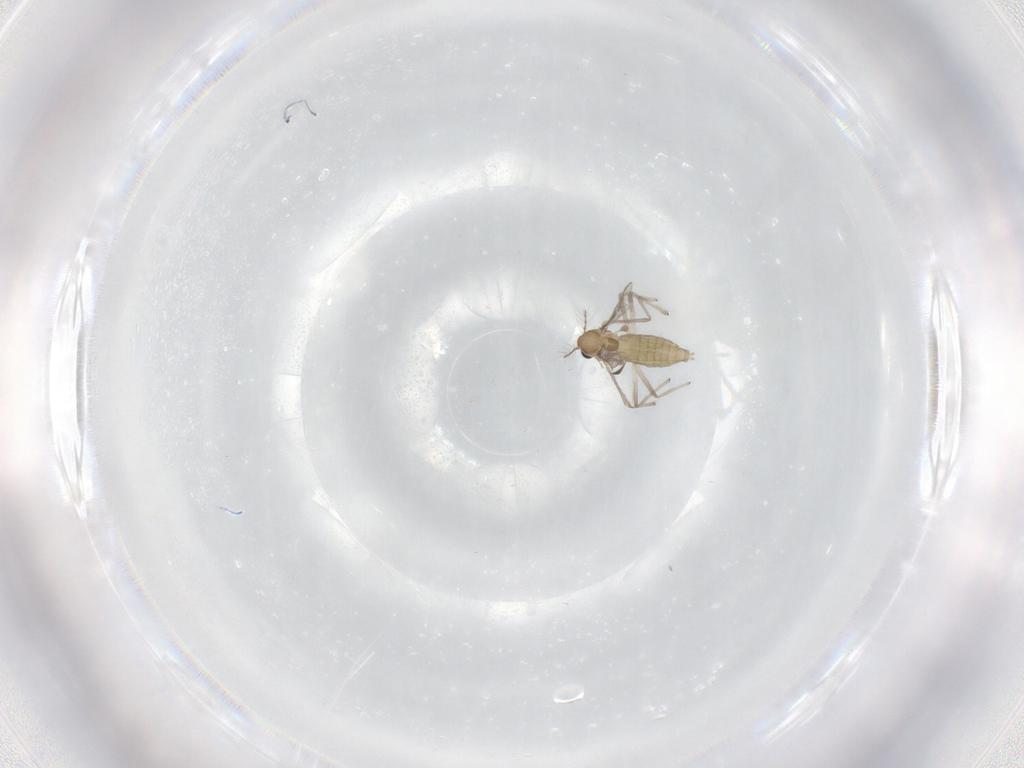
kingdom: Animalia
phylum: Arthropoda
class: Insecta
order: Diptera
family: Chironomidae
